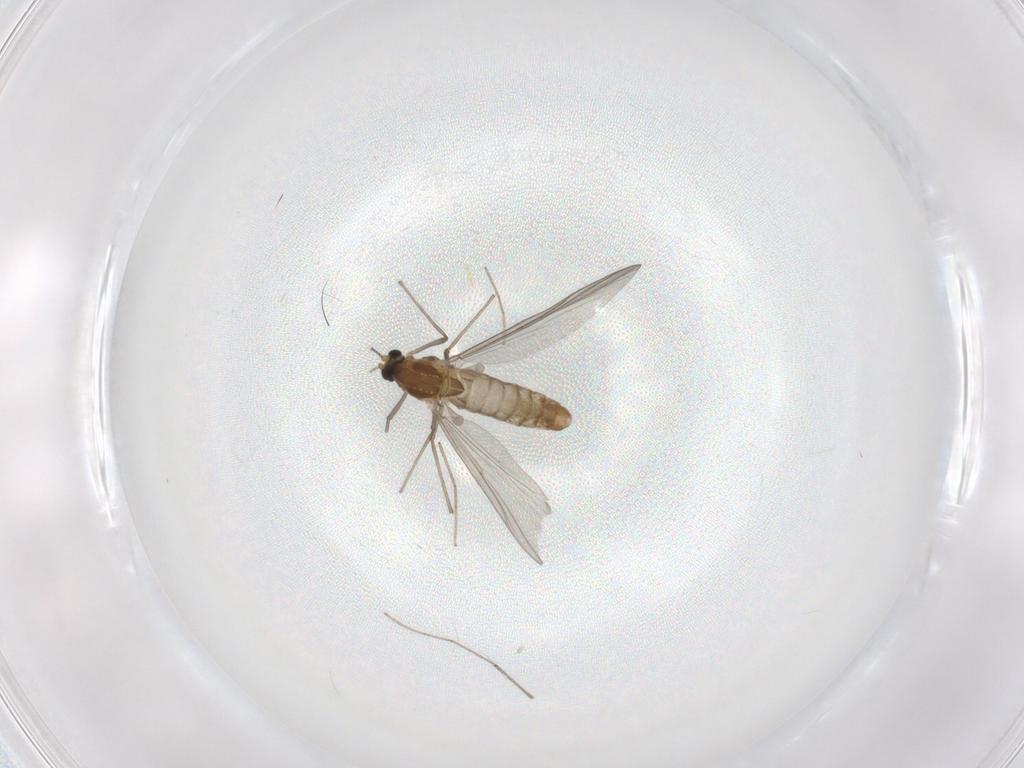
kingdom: Animalia
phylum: Arthropoda
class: Insecta
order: Diptera
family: Chironomidae
